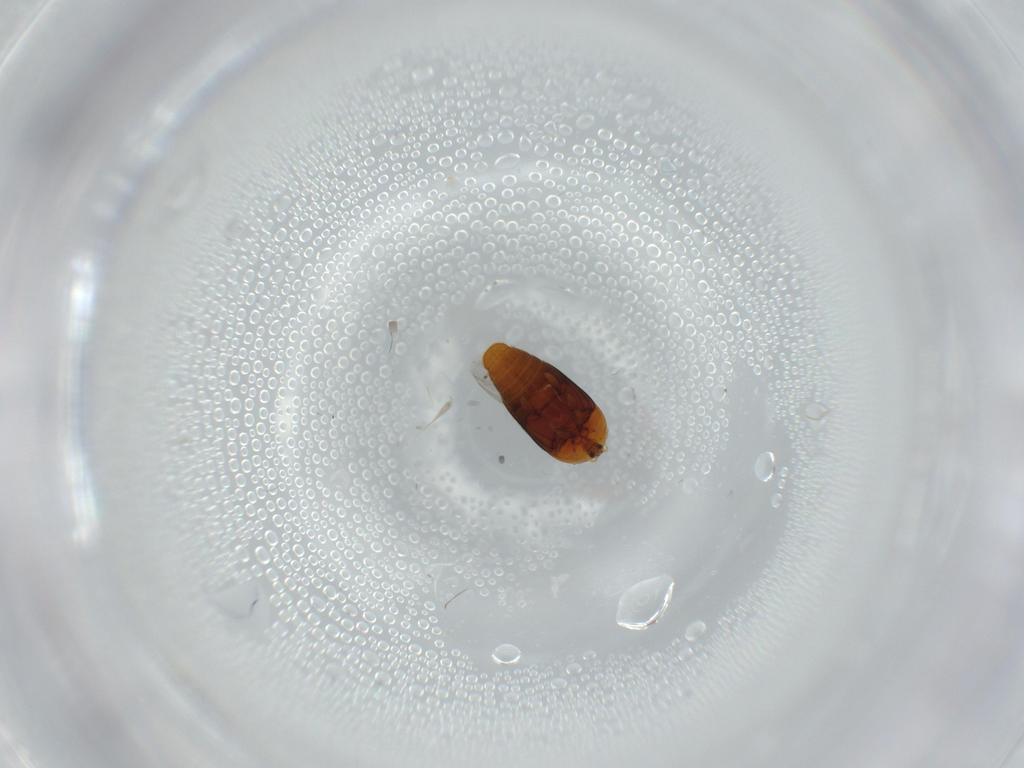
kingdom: Animalia
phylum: Arthropoda
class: Insecta
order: Coleoptera
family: Corylophidae
